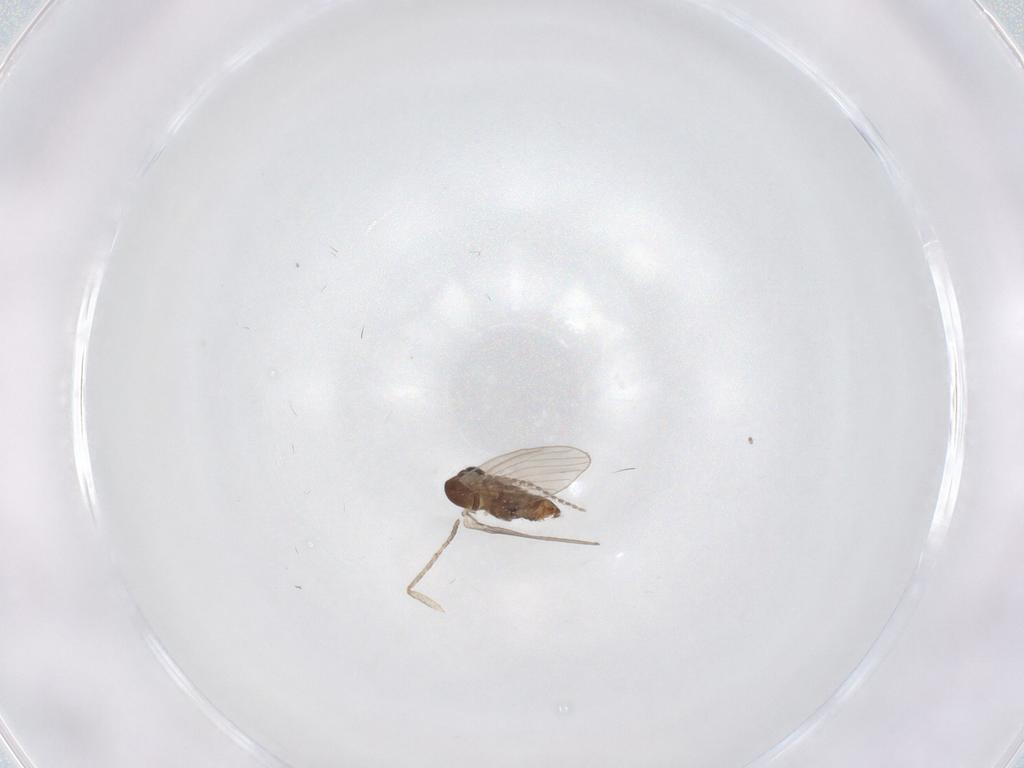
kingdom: Animalia
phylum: Arthropoda
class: Insecta
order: Diptera
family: Cecidomyiidae
